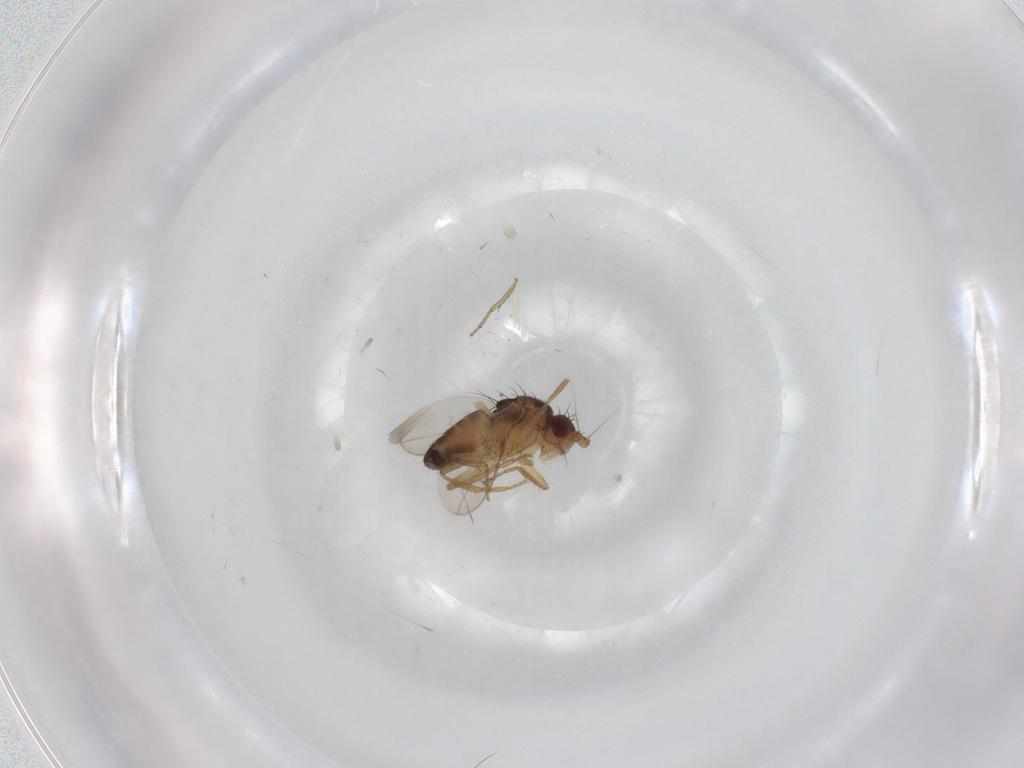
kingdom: Animalia
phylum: Arthropoda
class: Insecta
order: Diptera
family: Sphaeroceridae
